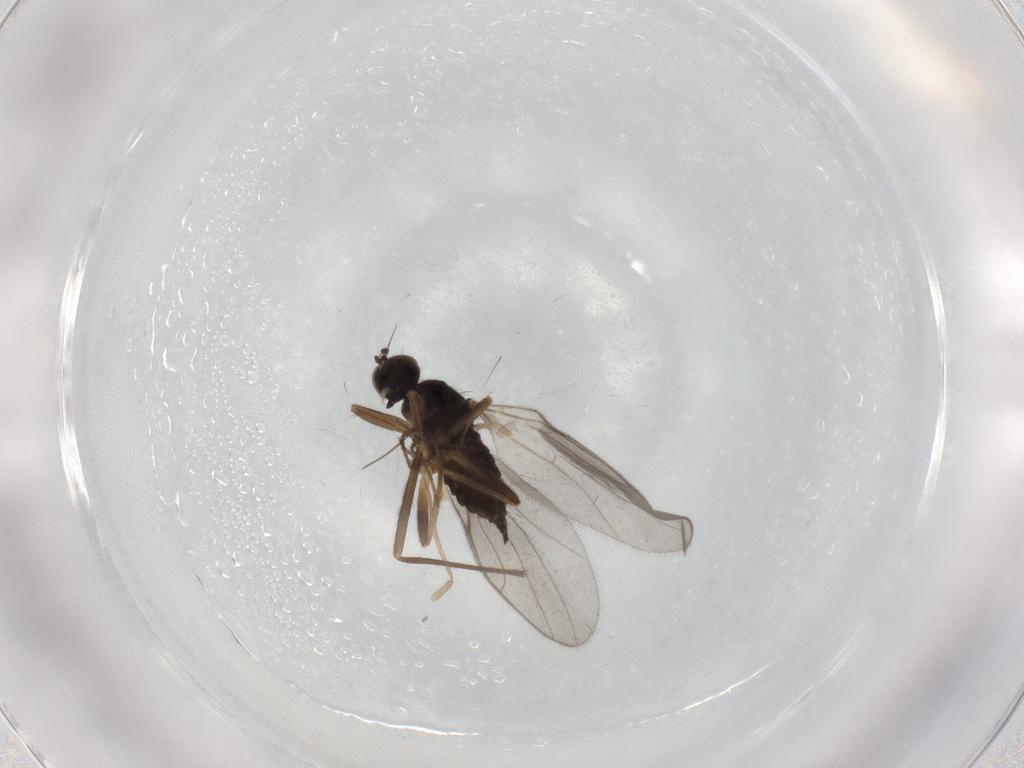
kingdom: Animalia
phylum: Arthropoda
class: Insecta
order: Diptera
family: Hybotidae
